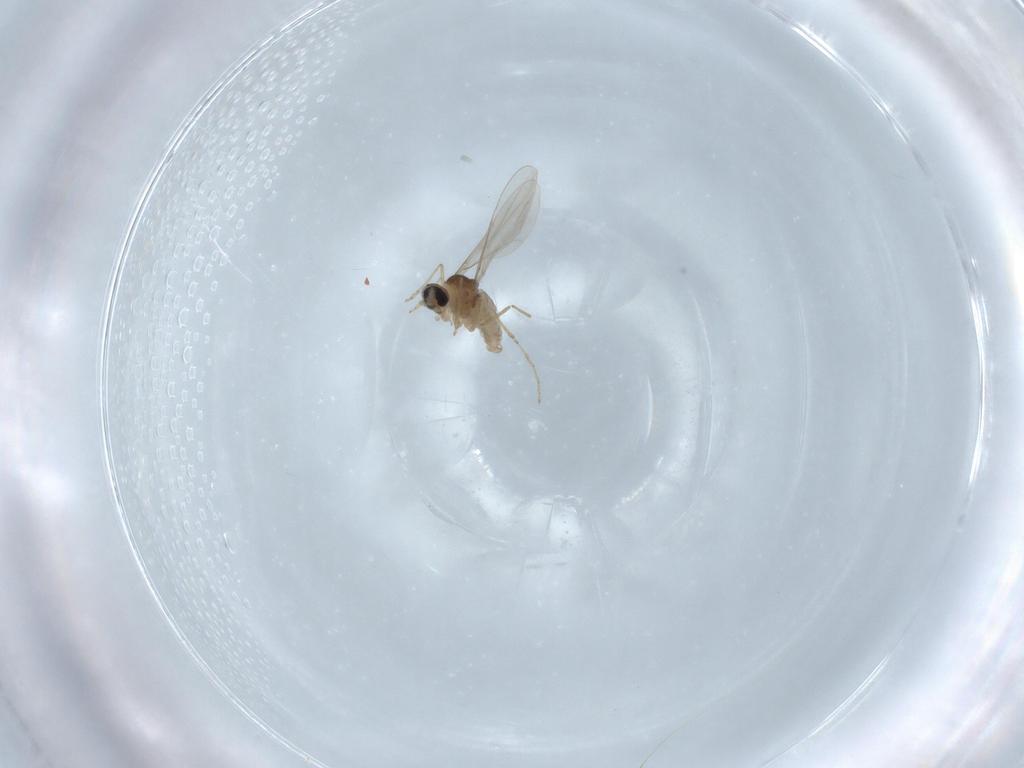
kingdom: Animalia
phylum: Arthropoda
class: Insecta
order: Diptera
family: Cecidomyiidae
